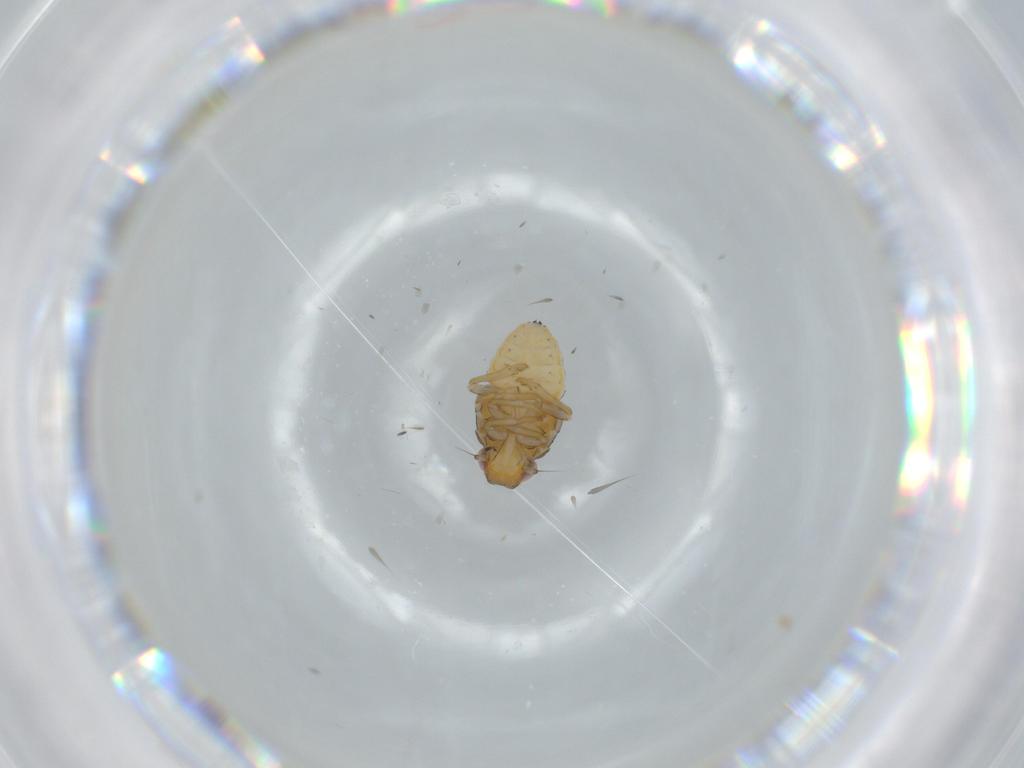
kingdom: Animalia
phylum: Arthropoda
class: Insecta
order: Hemiptera
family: Issidae
